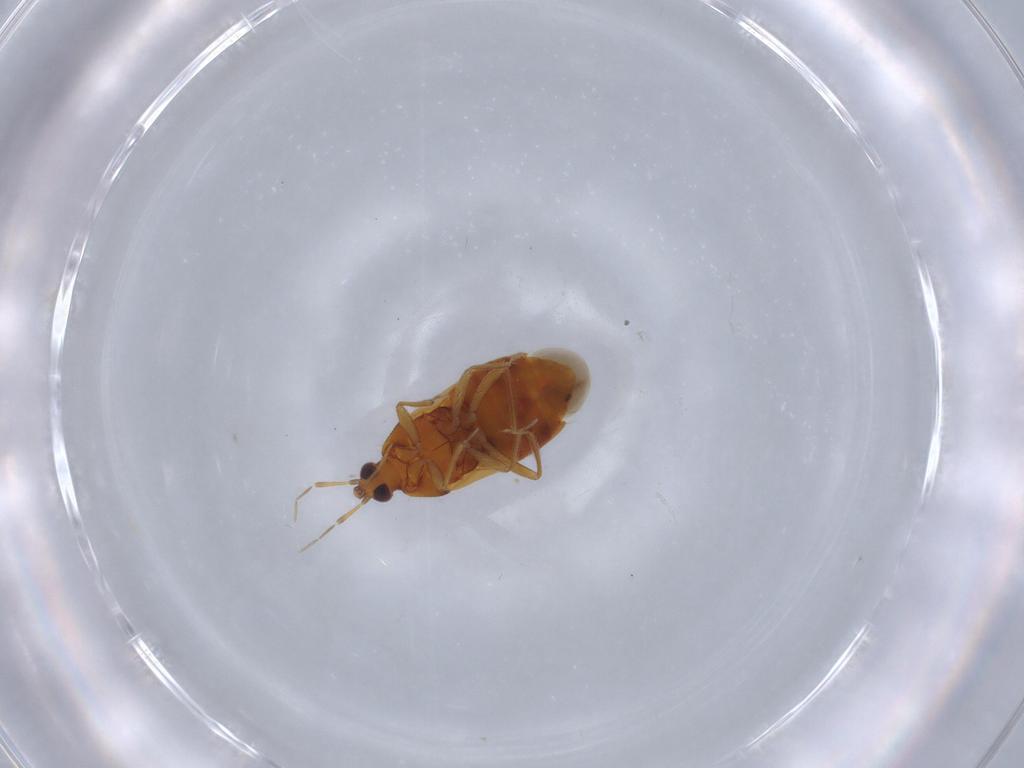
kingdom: Animalia
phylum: Arthropoda
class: Insecta
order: Hemiptera
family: Anthocoridae
